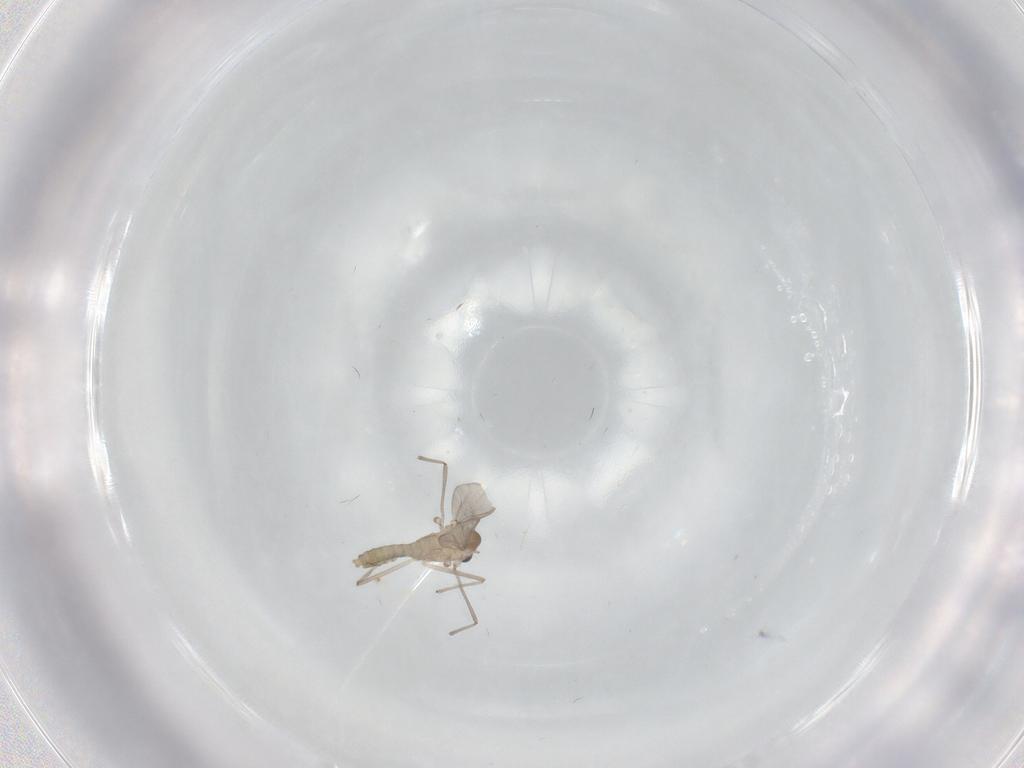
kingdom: Animalia
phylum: Arthropoda
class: Insecta
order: Diptera
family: Chironomidae
